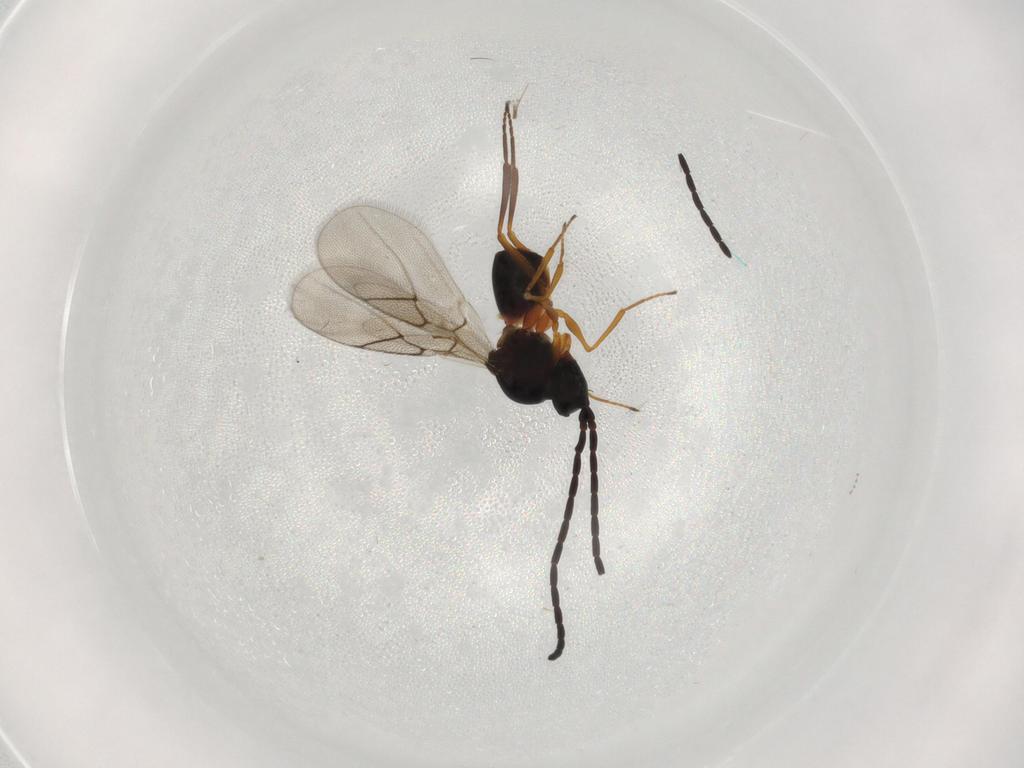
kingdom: Animalia
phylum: Arthropoda
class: Insecta
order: Hymenoptera
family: Figitidae
